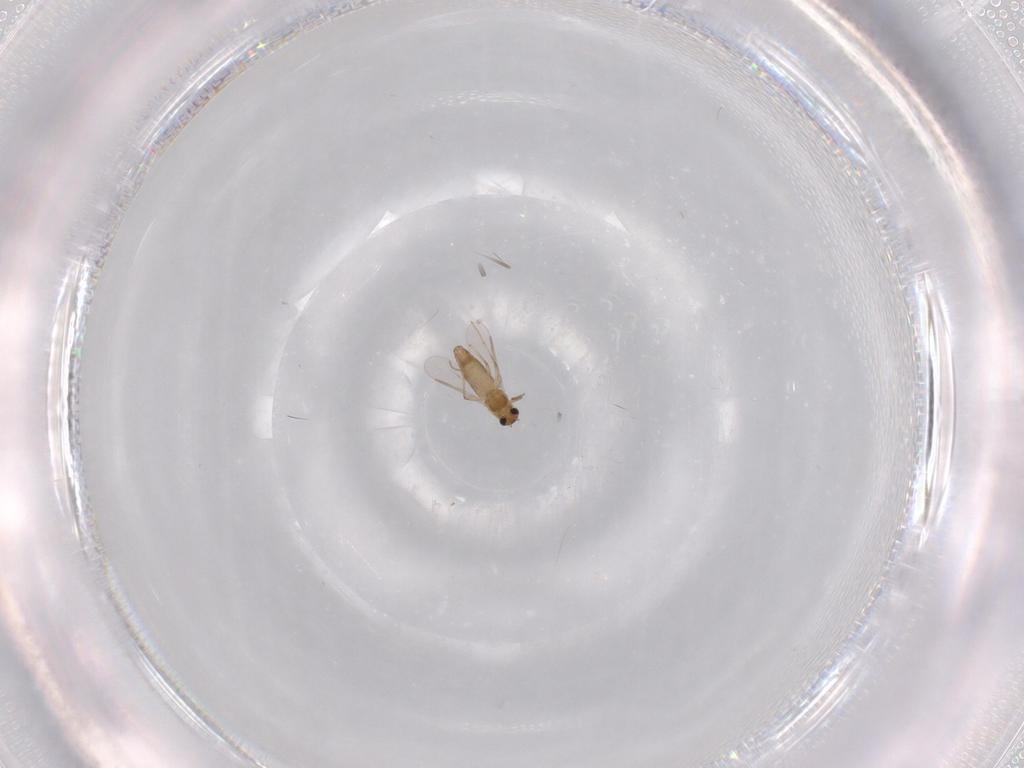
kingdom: Animalia
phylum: Arthropoda
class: Insecta
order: Diptera
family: Chironomidae
